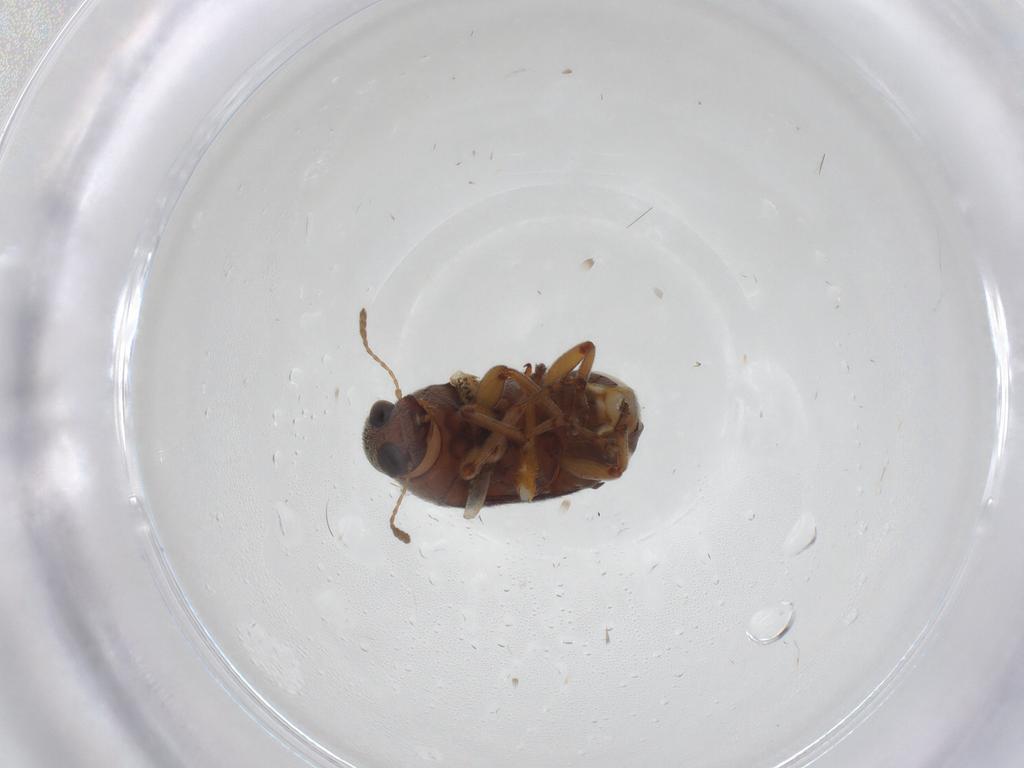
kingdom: Animalia
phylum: Arthropoda
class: Insecta
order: Coleoptera
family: Anthribidae
